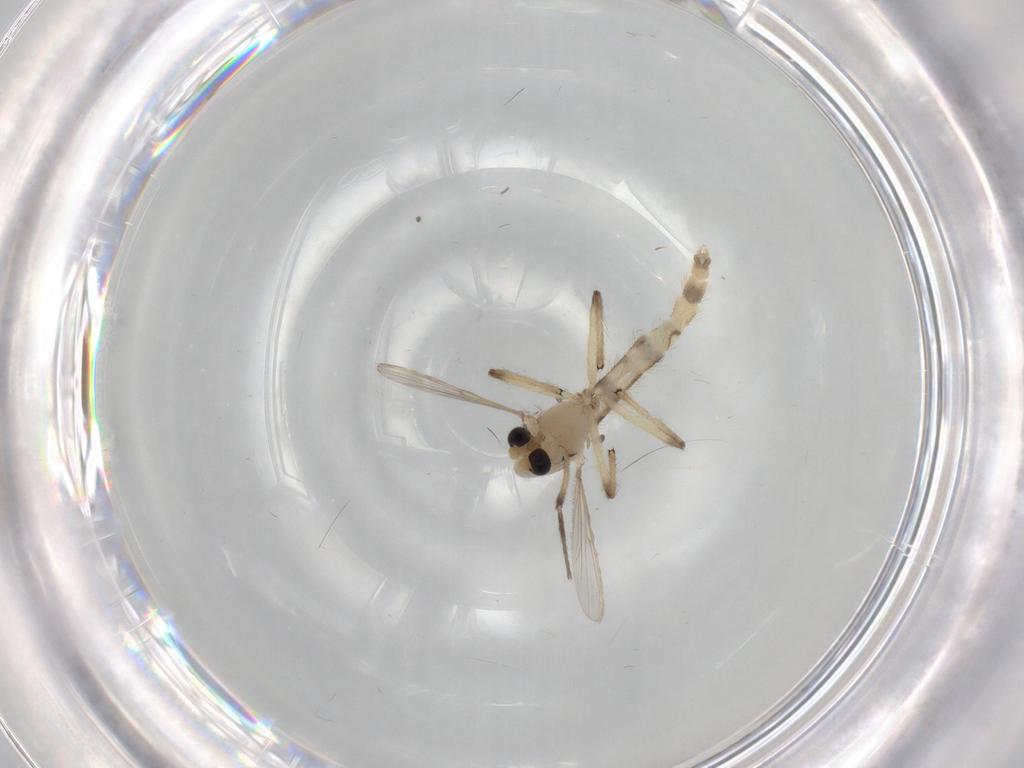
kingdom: Animalia
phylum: Arthropoda
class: Insecta
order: Diptera
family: Chironomidae
